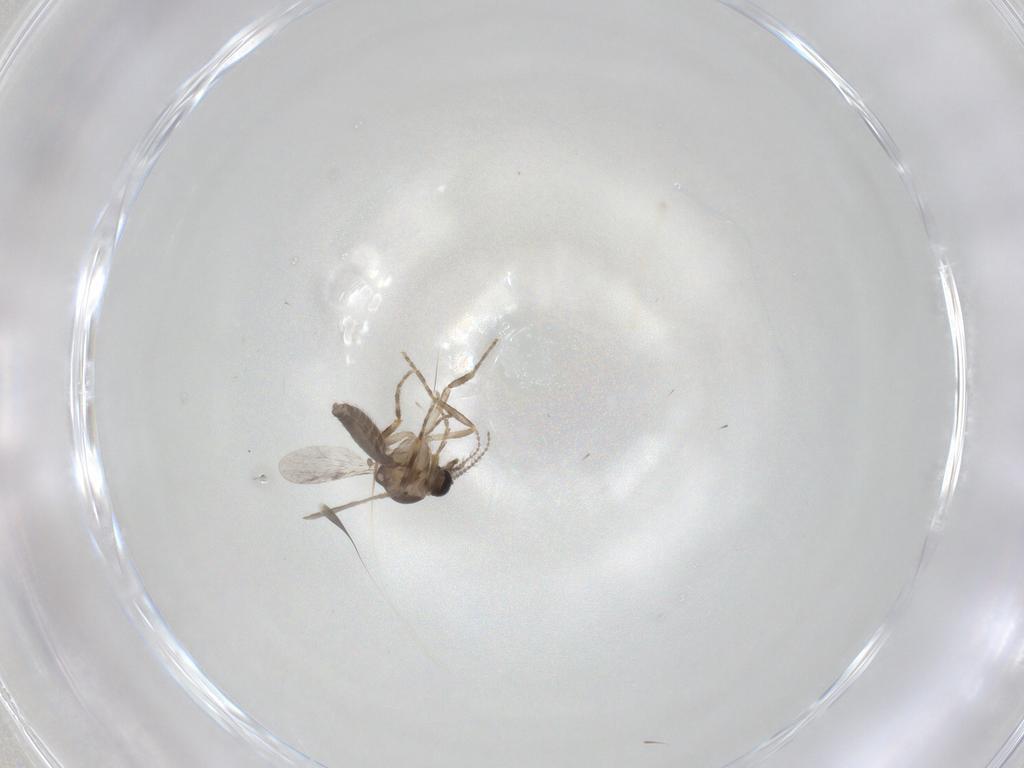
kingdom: Animalia
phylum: Arthropoda
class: Insecta
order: Diptera
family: Ceratopogonidae
